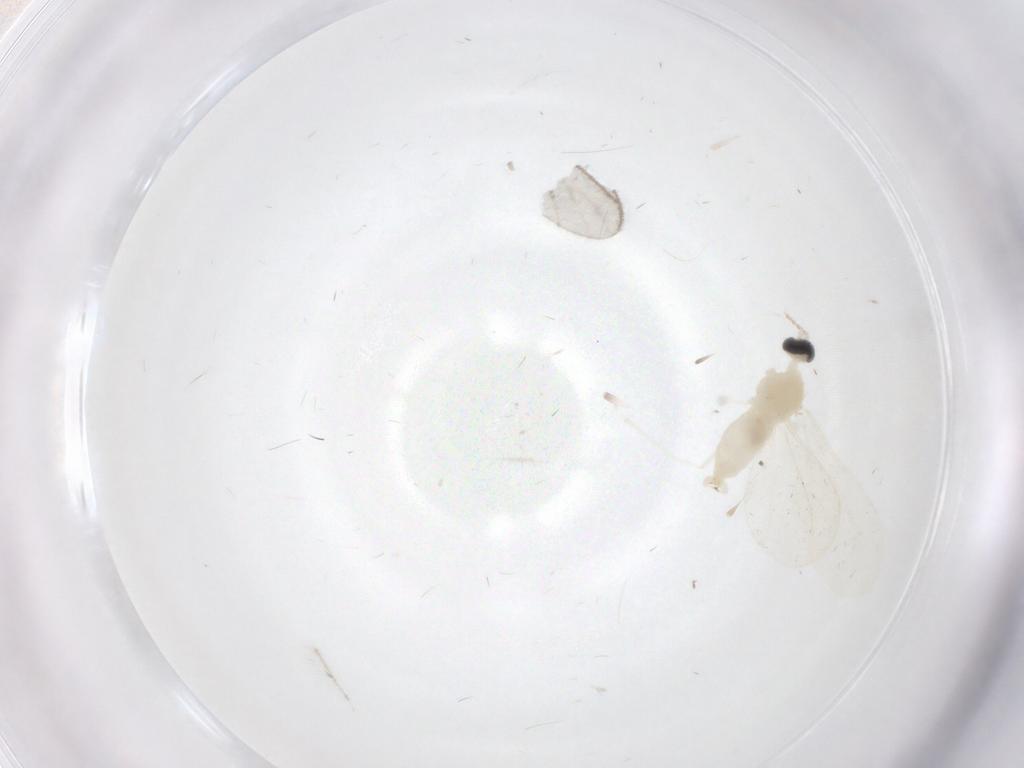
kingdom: Animalia
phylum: Arthropoda
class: Insecta
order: Diptera
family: Cecidomyiidae
